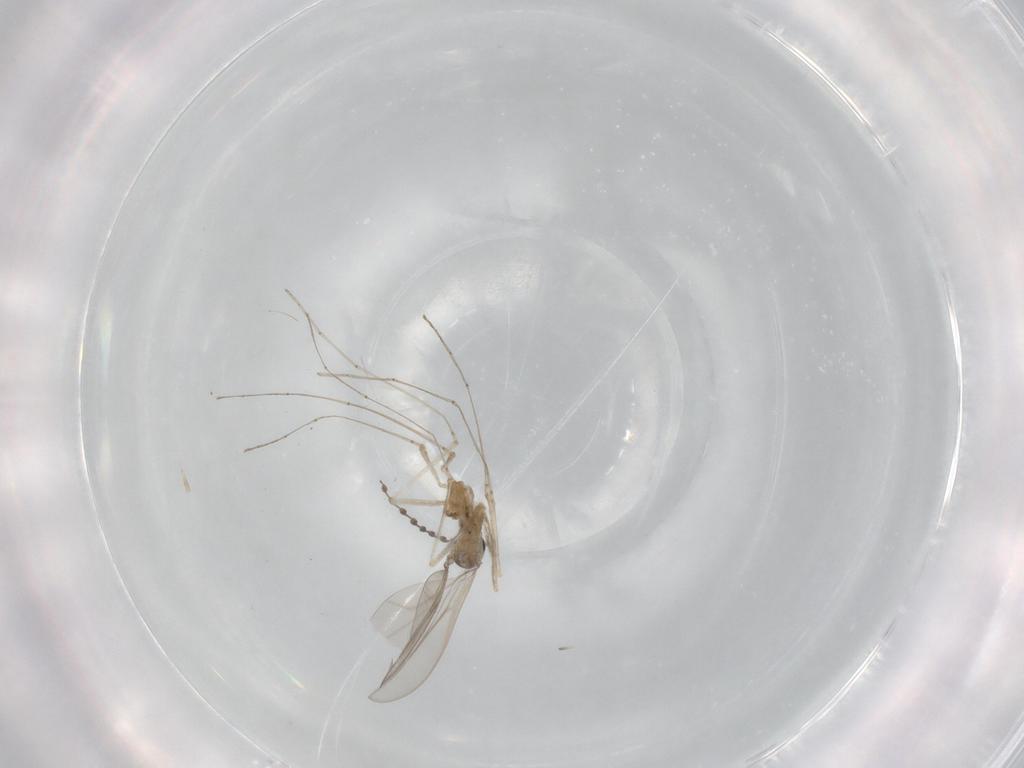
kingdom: Animalia
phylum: Arthropoda
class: Insecta
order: Diptera
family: Cecidomyiidae
